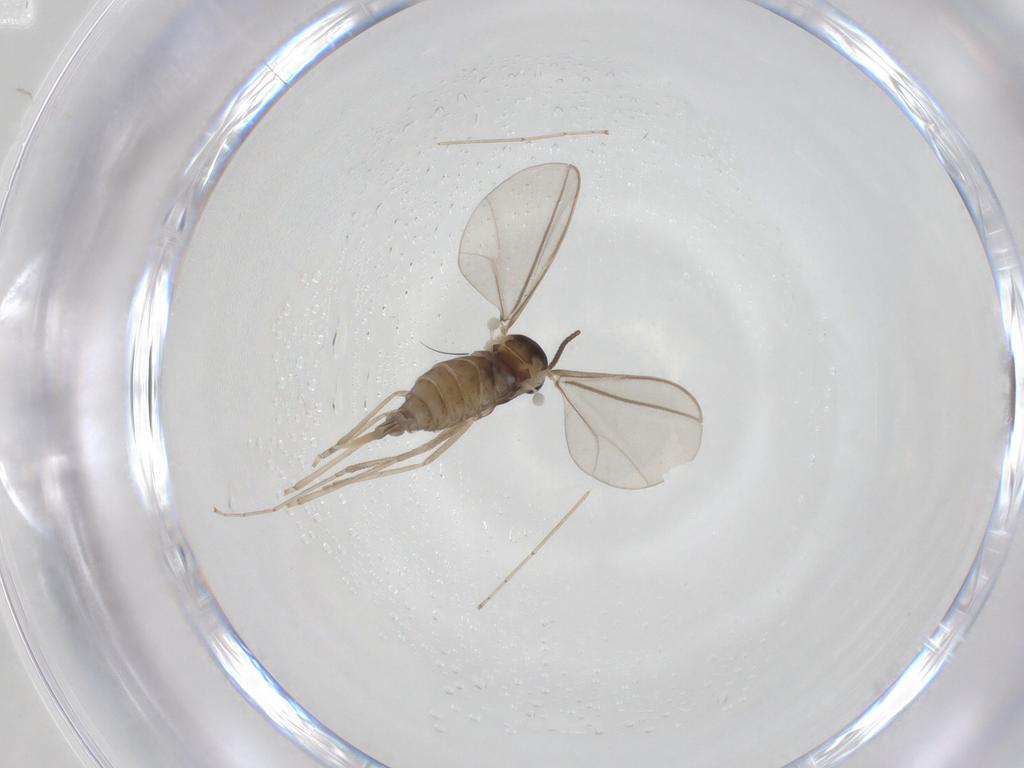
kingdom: Animalia
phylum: Arthropoda
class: Insecta
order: Diptera
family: Cecidomyiidae
